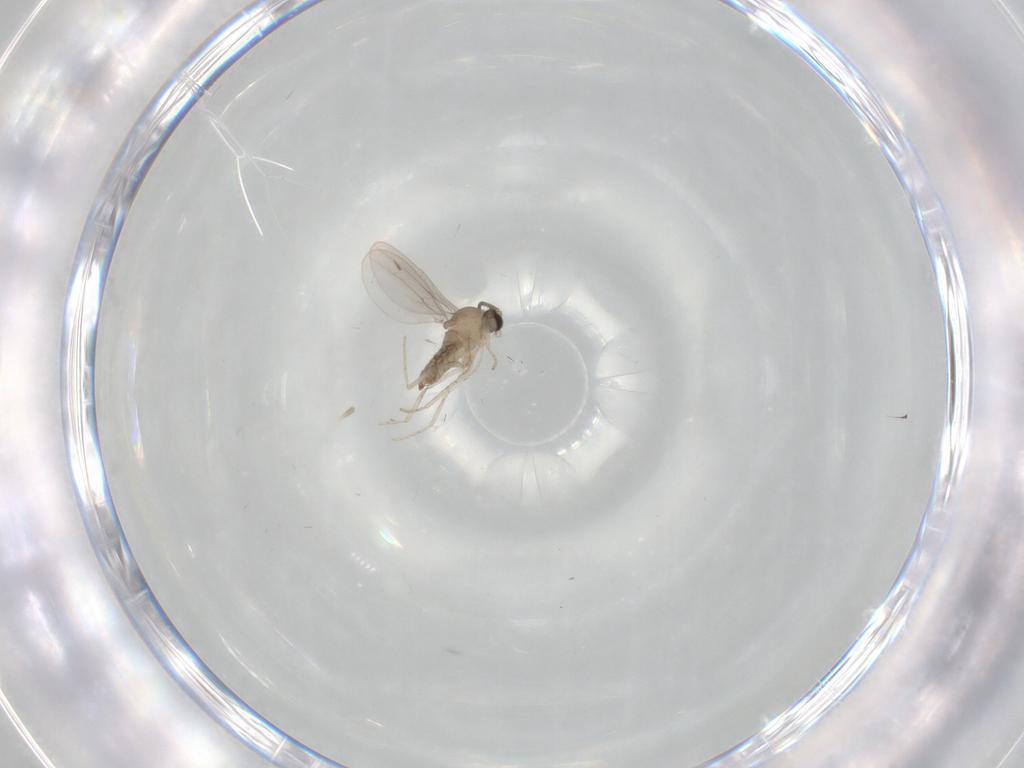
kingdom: Animalia
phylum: Arthropoda
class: Insecta
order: Diptera
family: Cecidomyiidae
